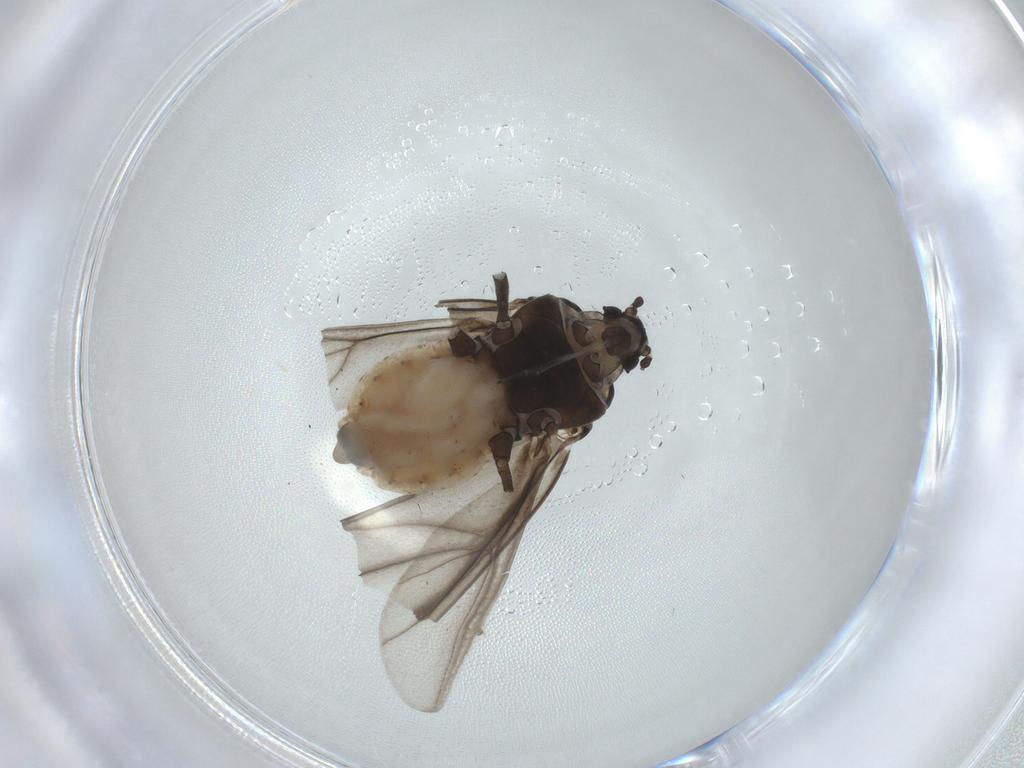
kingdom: Animalia
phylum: Arthropoda
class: Insecta
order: Hemiptera
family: Aphididae
